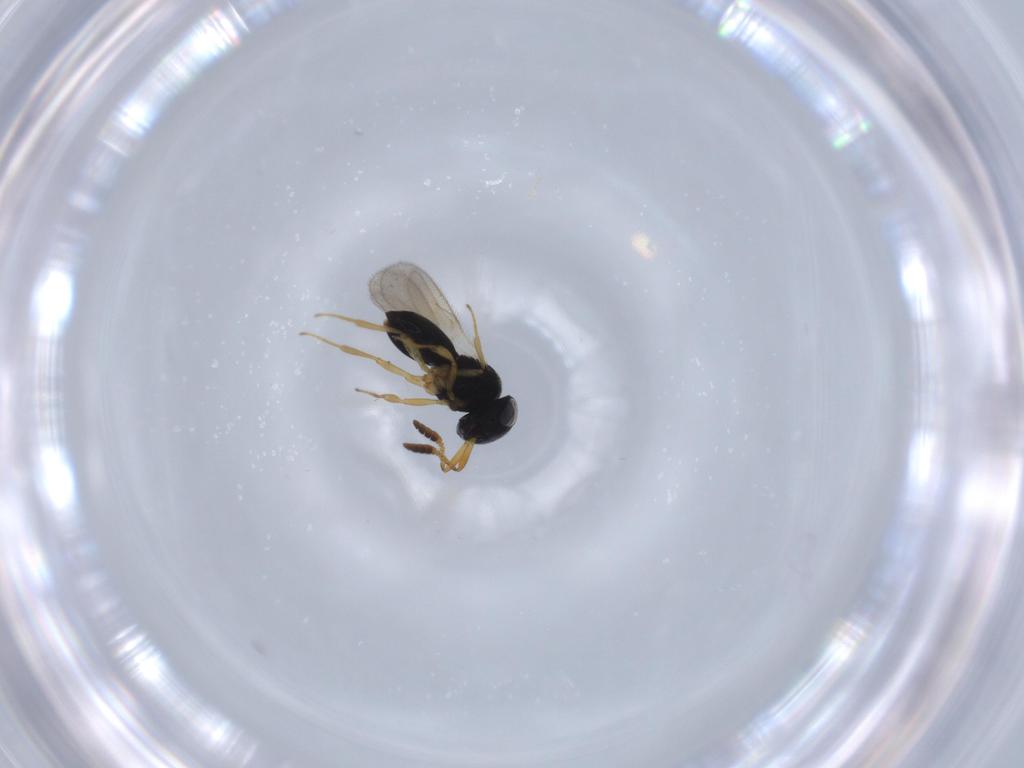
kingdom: Animalia
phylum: Arthropoda
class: Insecta
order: Hymenoptera
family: Scelionidae
